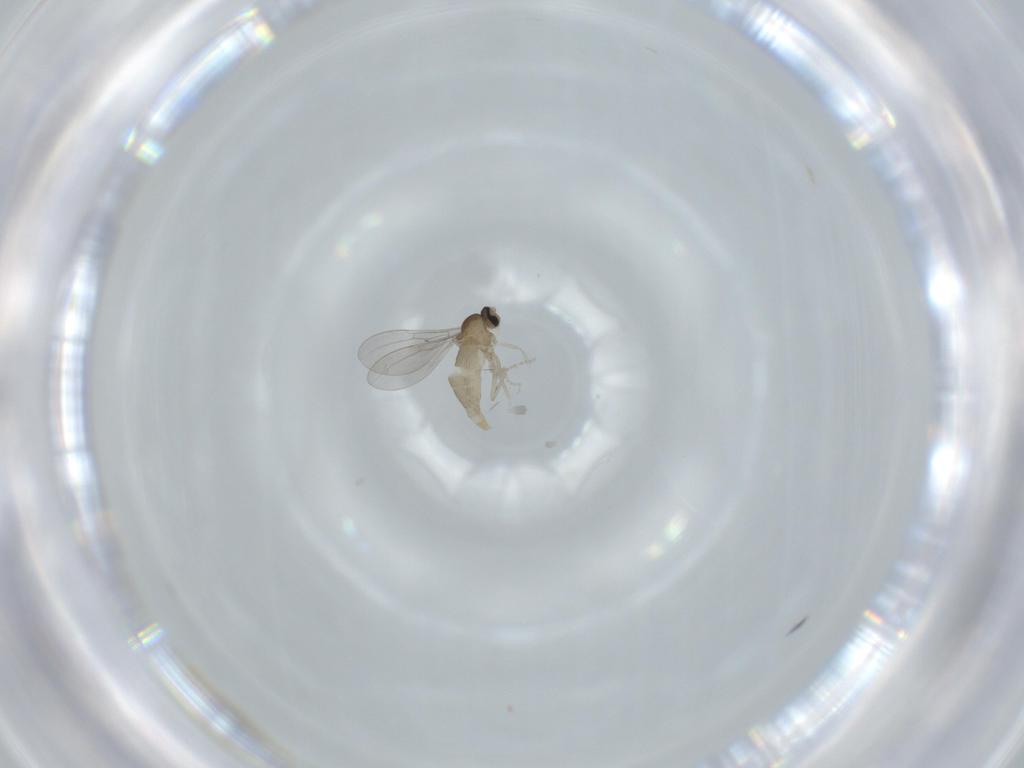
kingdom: Animalia
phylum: Arthropoda
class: Insecta
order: Diptera
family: Cecidomyiidae
